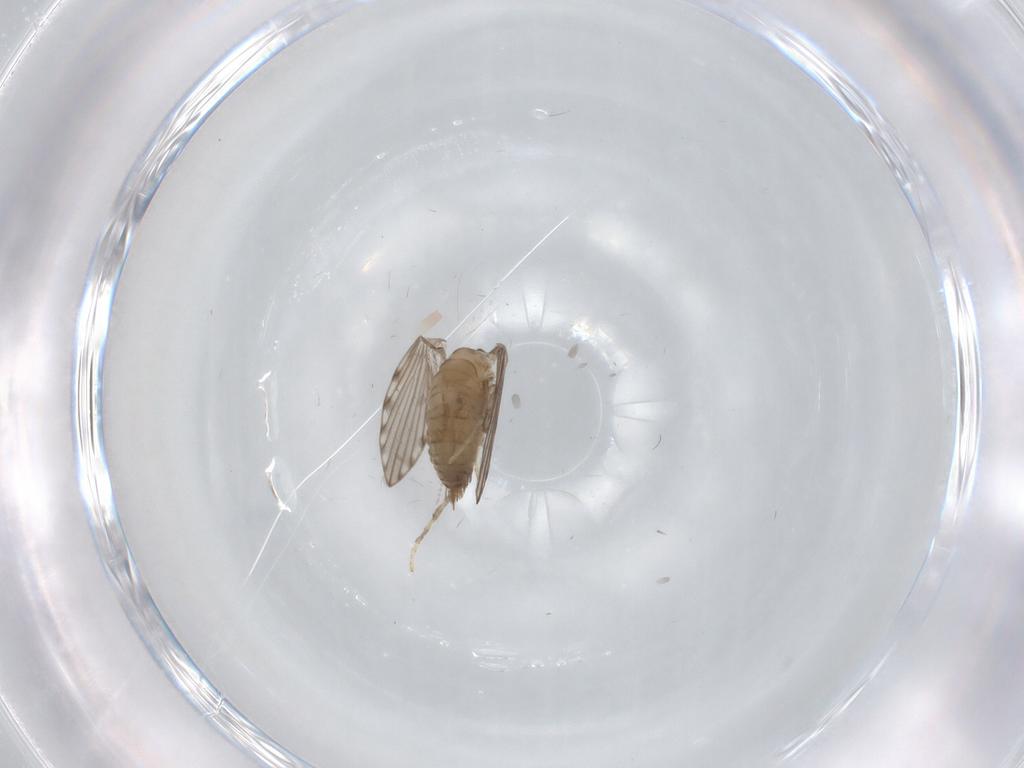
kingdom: Animalia
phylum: Arthropoda
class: Insecta
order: Diptera
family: Psychodidae
